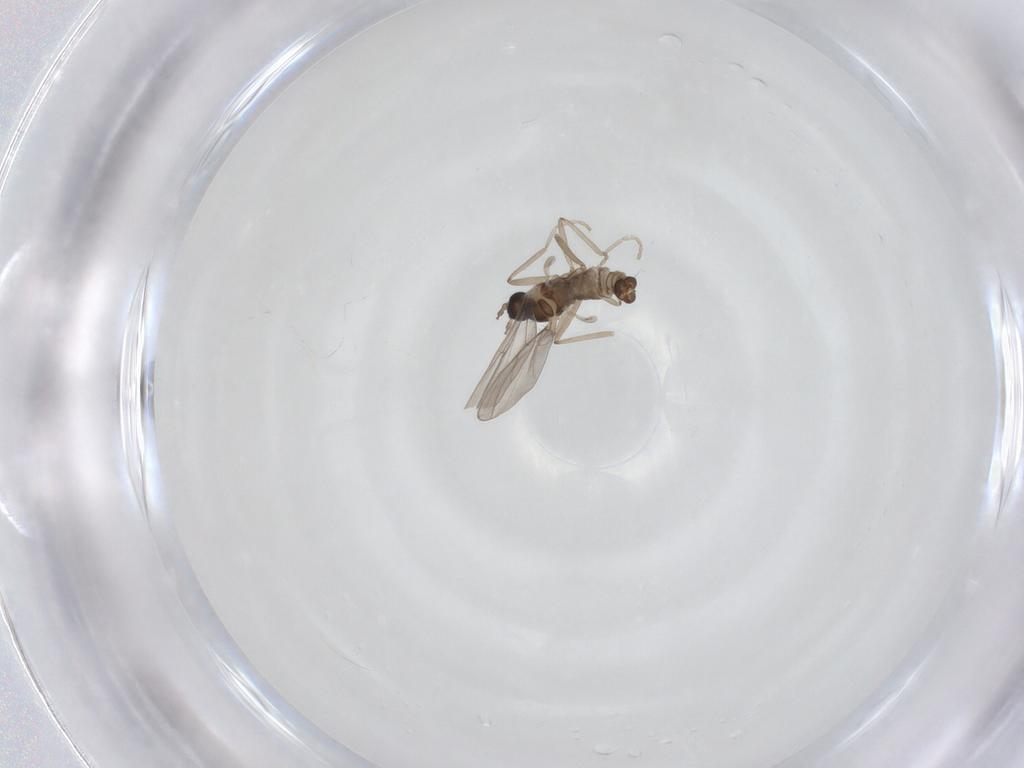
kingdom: Animalia
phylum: Arthropoda
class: Insecta
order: Diptera
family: Cecidomyiidae
